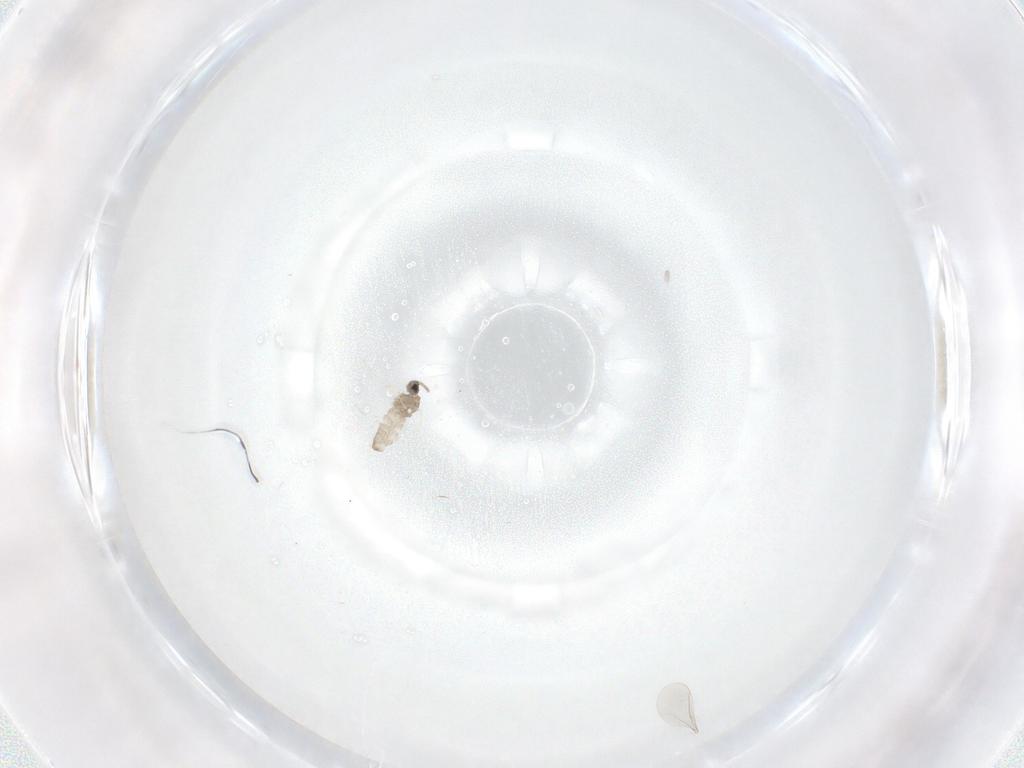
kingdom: Animalia
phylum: Arthropoda
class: Insecta
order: Diptera
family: Cecidomyiidae
